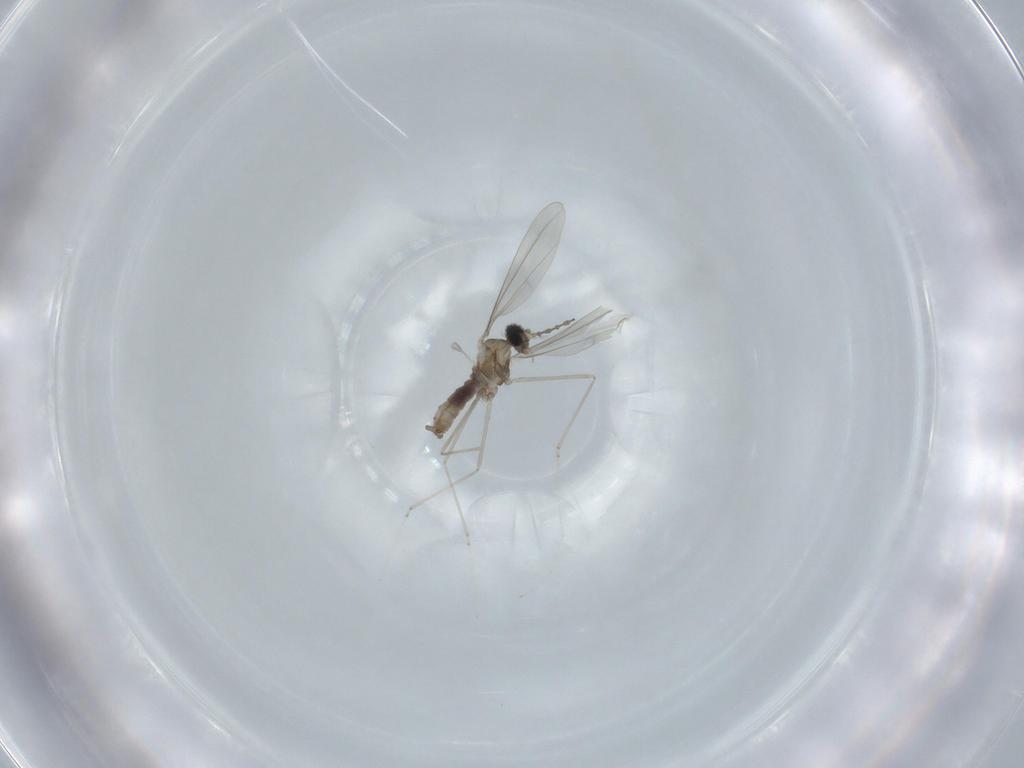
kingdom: Animalia
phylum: Arthropoda
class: Insecta
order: Diptera
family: Cecidomyiidae
